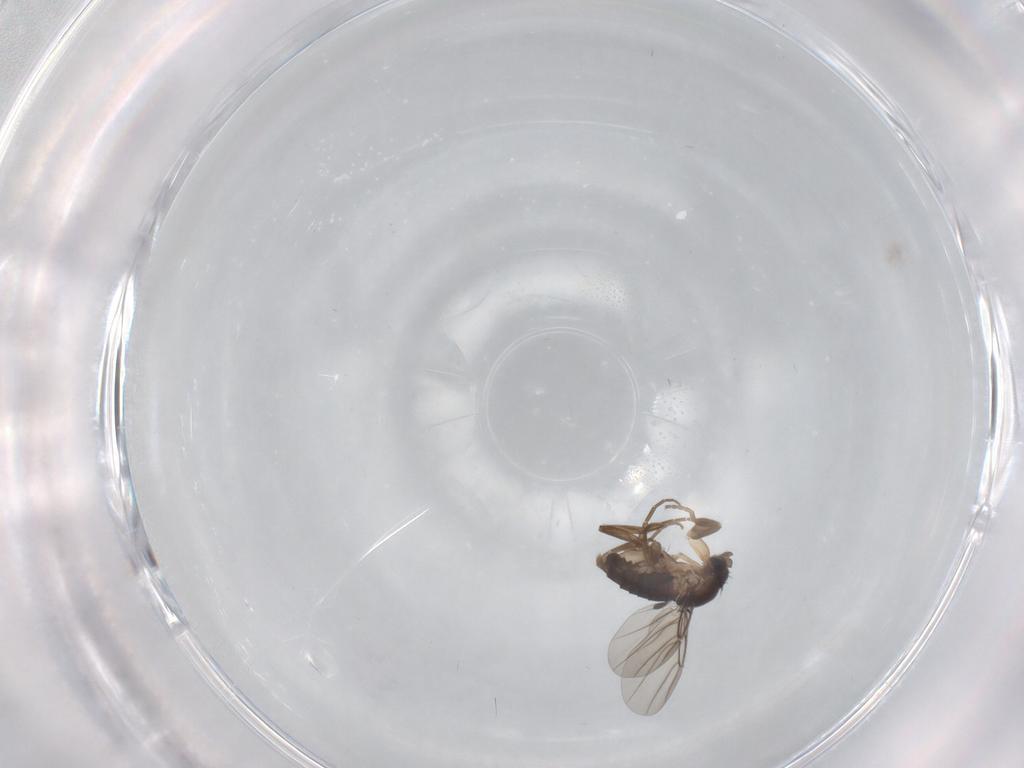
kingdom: Animalia
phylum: Arthropoda
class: Insecta
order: Diptera
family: Phoridae
